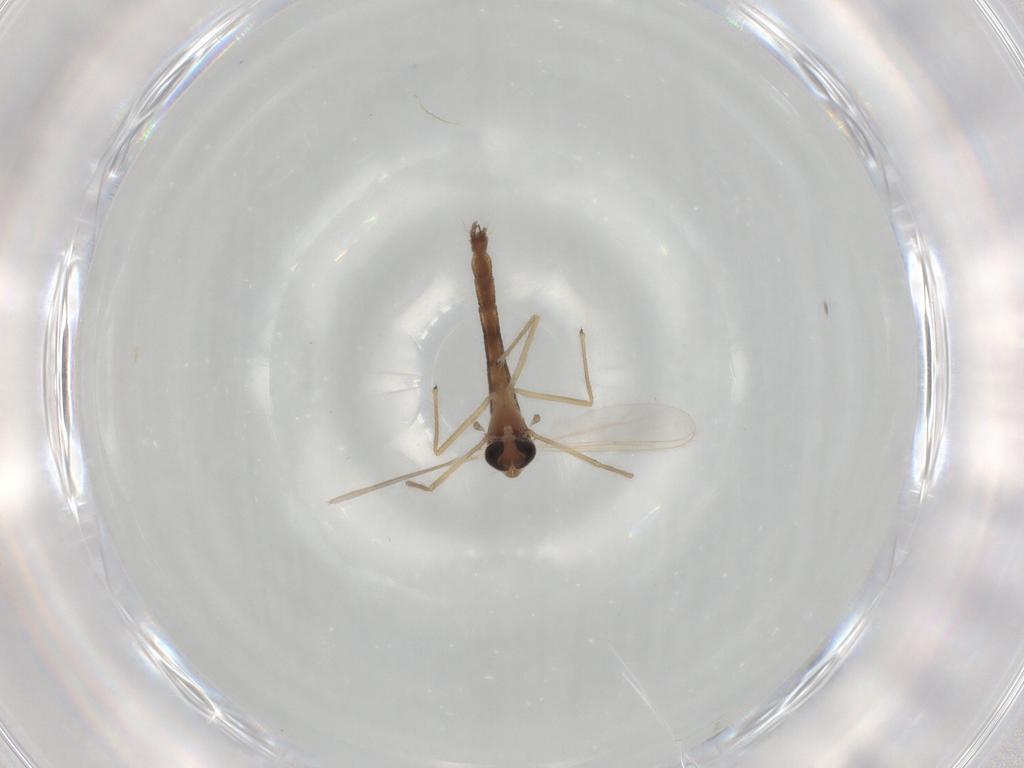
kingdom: Animalia
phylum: Arthropoda
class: Insecta
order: Diptera
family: Chironomidae
